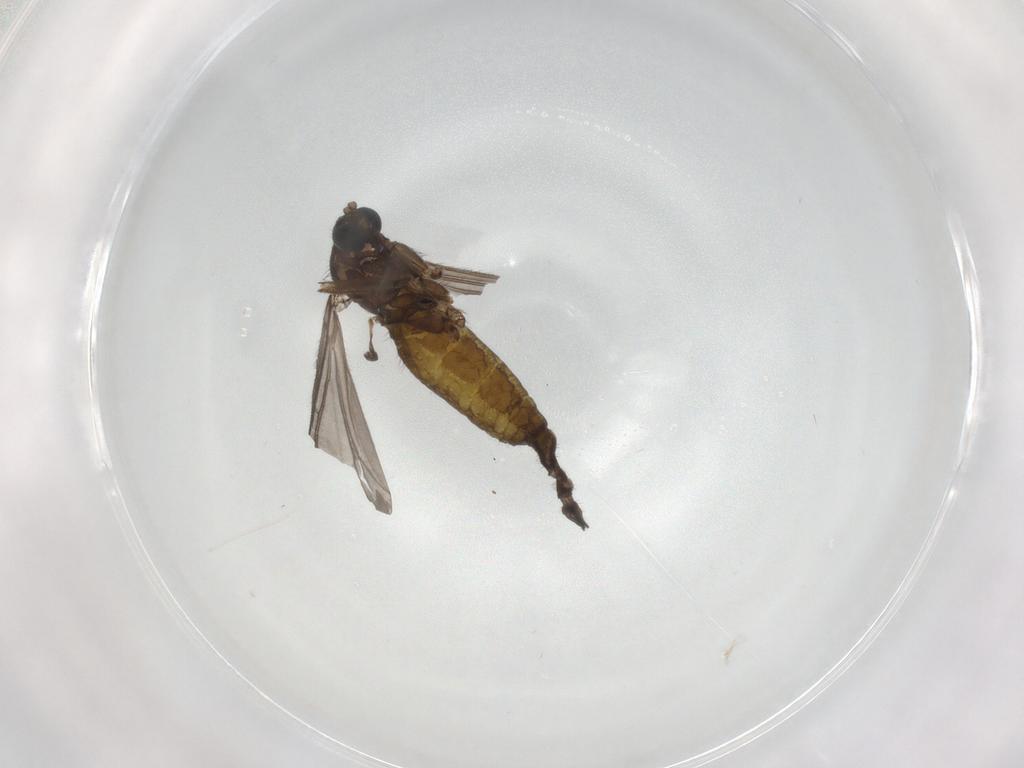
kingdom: Animalia
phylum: Arthropoda
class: Insecta
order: Diptera
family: Sciaridae
